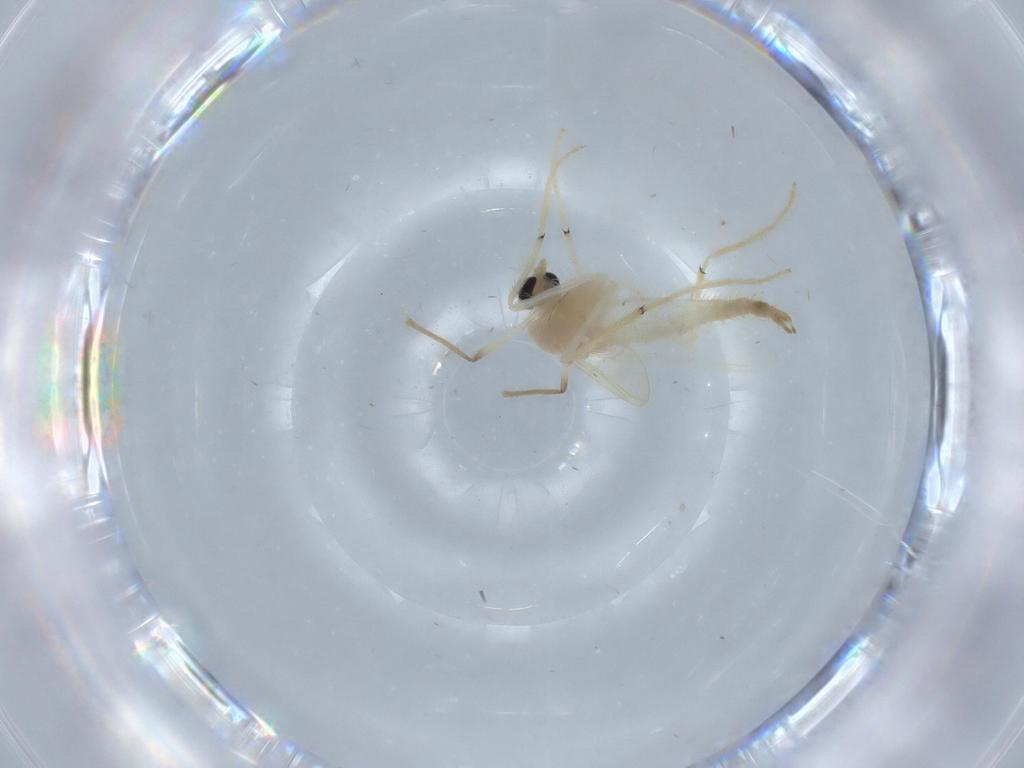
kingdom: Animalia
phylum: Arthropoda
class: Insecta
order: Diptera
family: Chironomidae
